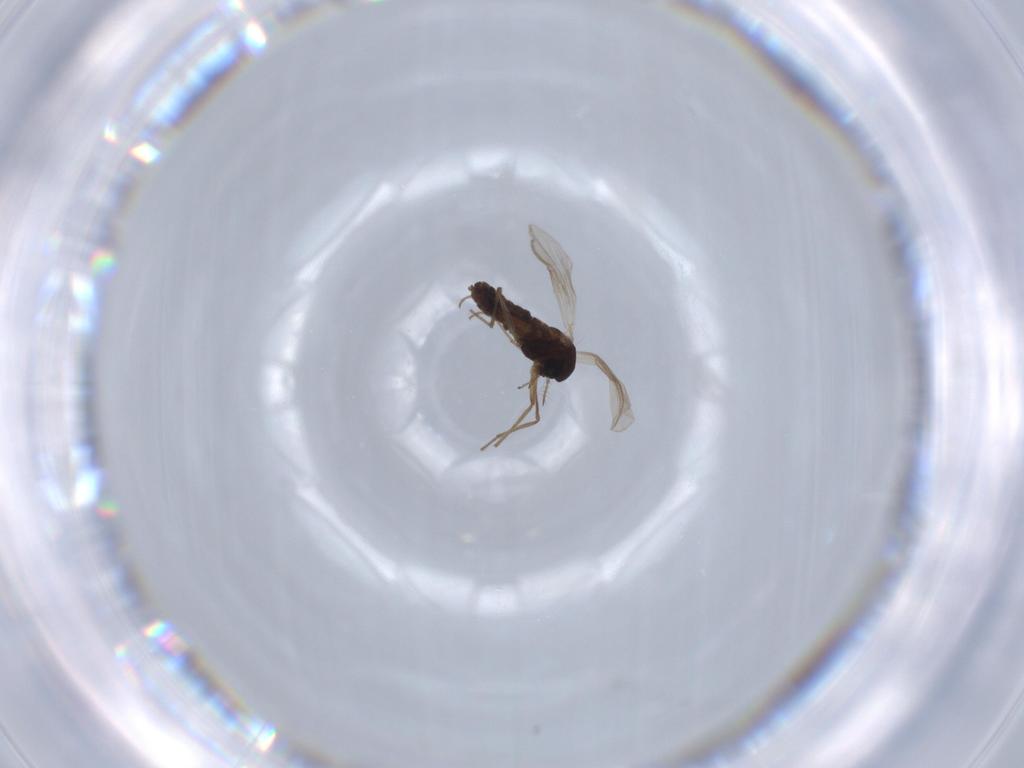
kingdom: Animalia
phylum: Arthropoda
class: Insecta
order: Diptera
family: Chironomidae
